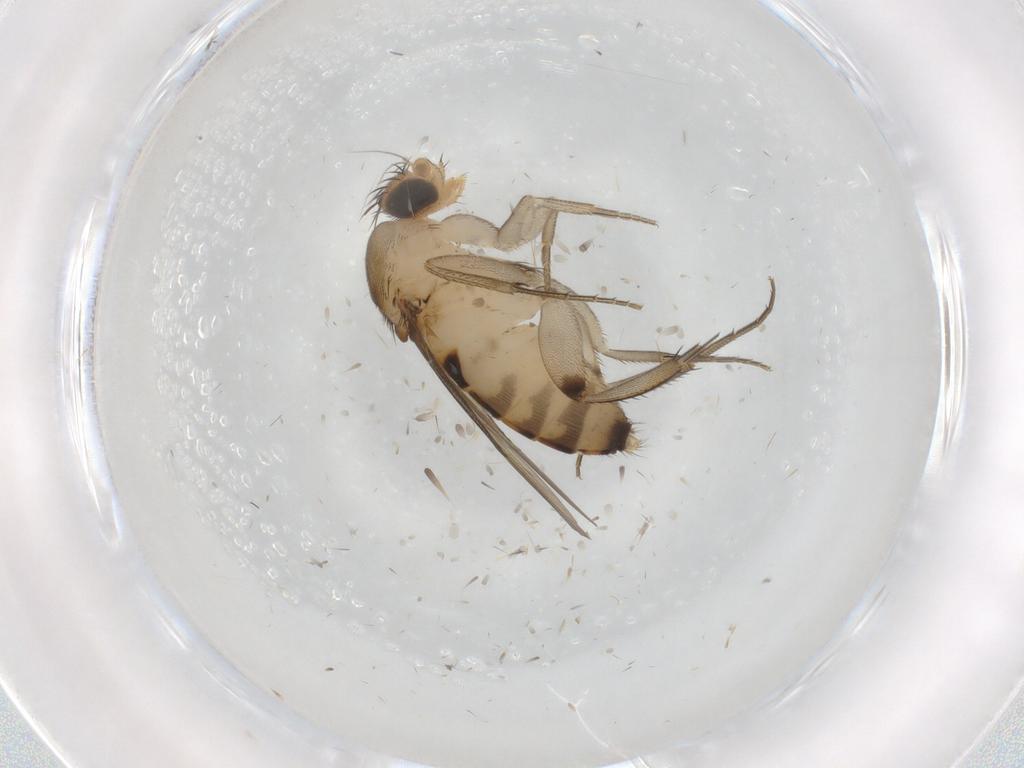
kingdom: Animalia
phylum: Arthropoda
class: Insecta
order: Diptera
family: Phoridae
